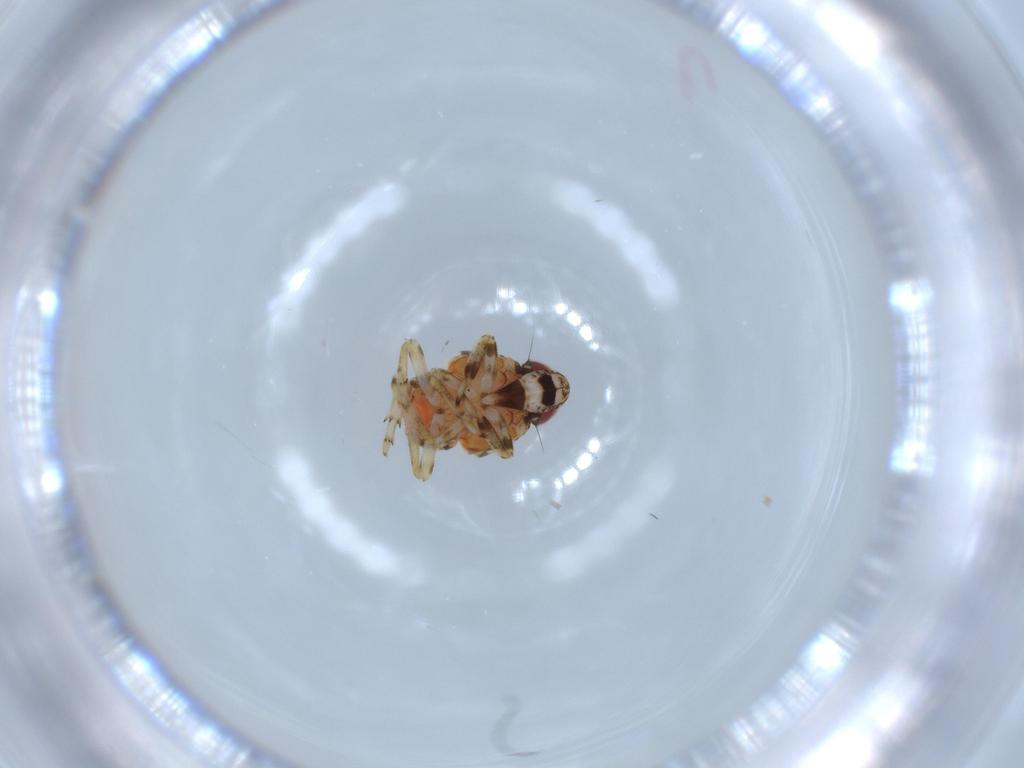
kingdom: Animalia
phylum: Arthropoda
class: Insecta
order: Hemiptera
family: Issidae
